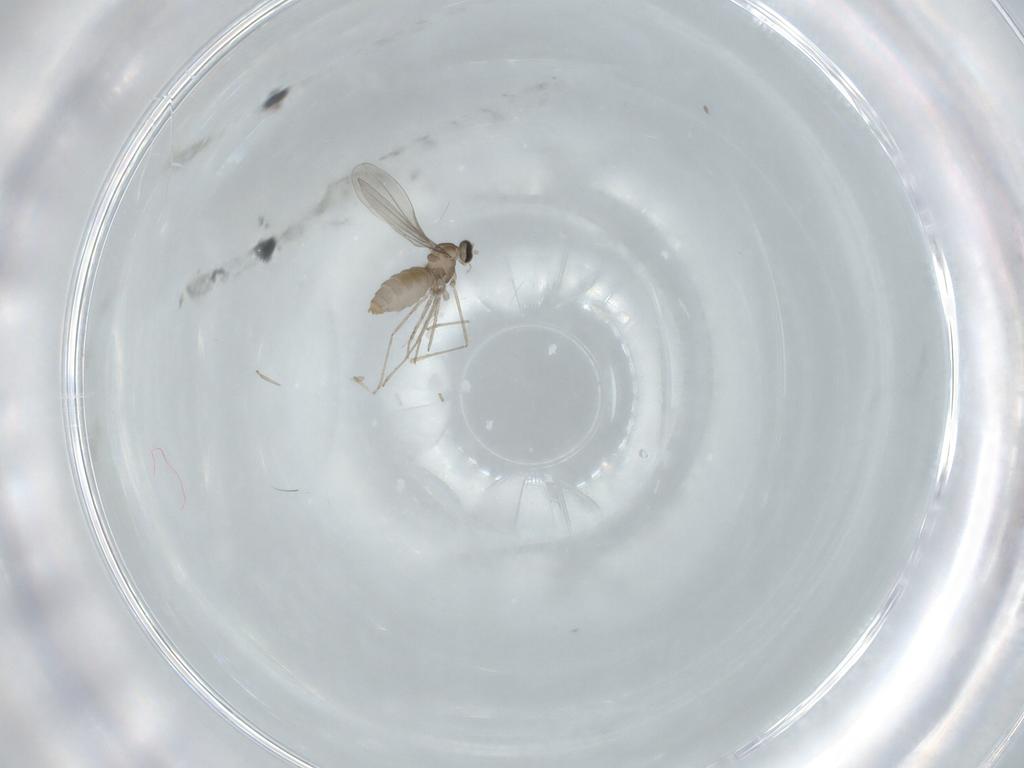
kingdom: Animalia
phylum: Arthropoda
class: Insecta
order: Diptera
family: Cecidomyiidae
